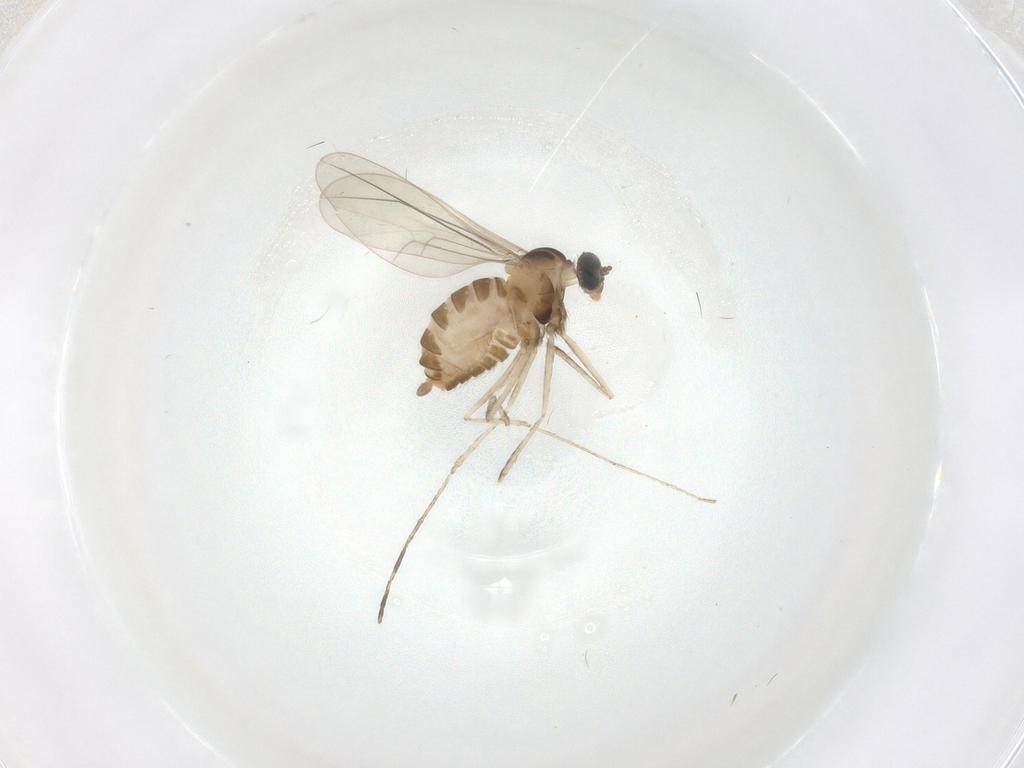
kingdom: Animalia
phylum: Arthropoda
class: Insecta
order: Diptera
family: Cecidomyiidae
